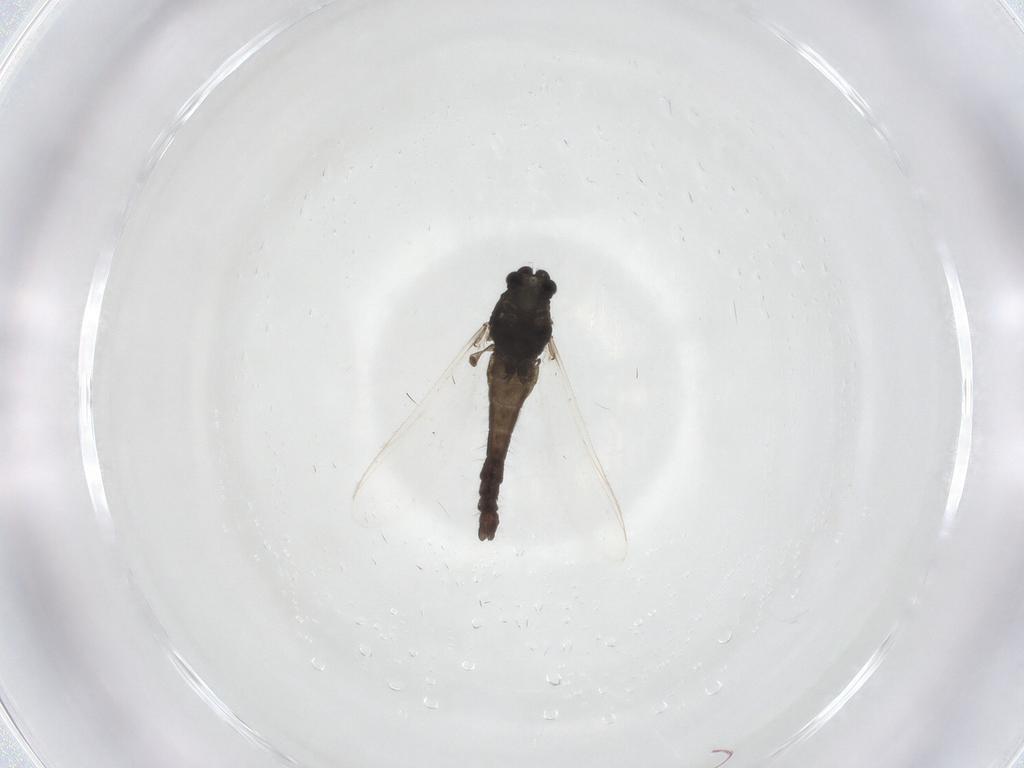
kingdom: Animalia
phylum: Arthropoda
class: Insecta
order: Diptera
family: Chironomidae
